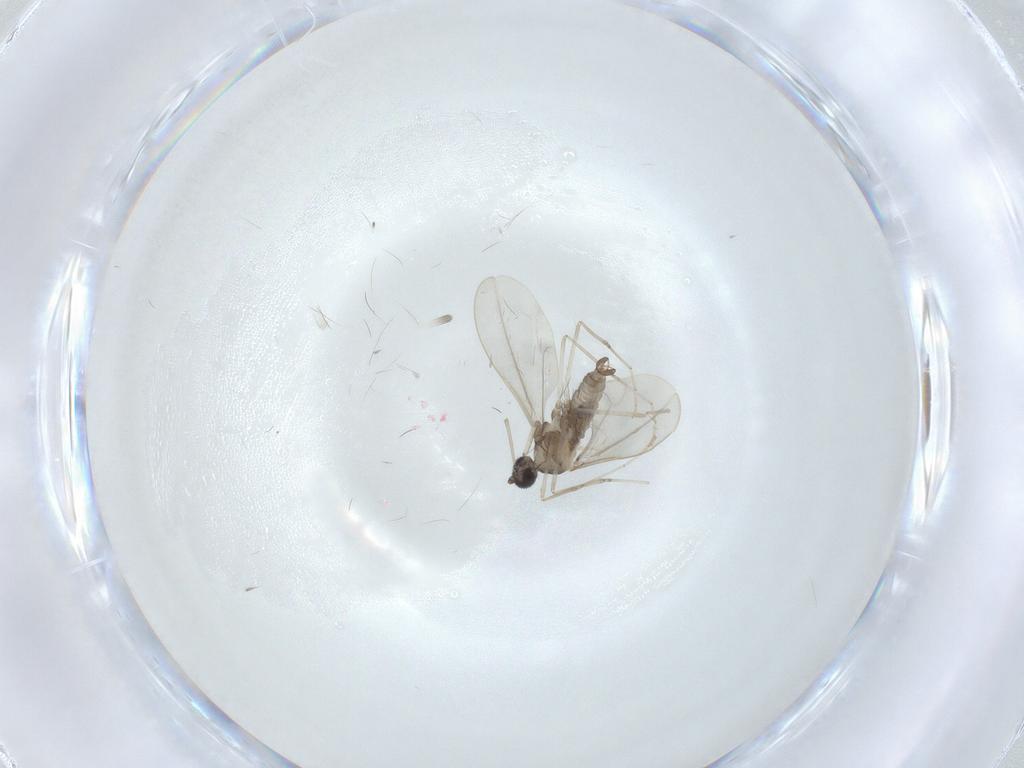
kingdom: Animalia
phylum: Arthropoda
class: Insecta
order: Diptera
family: Cecidomyiidae
